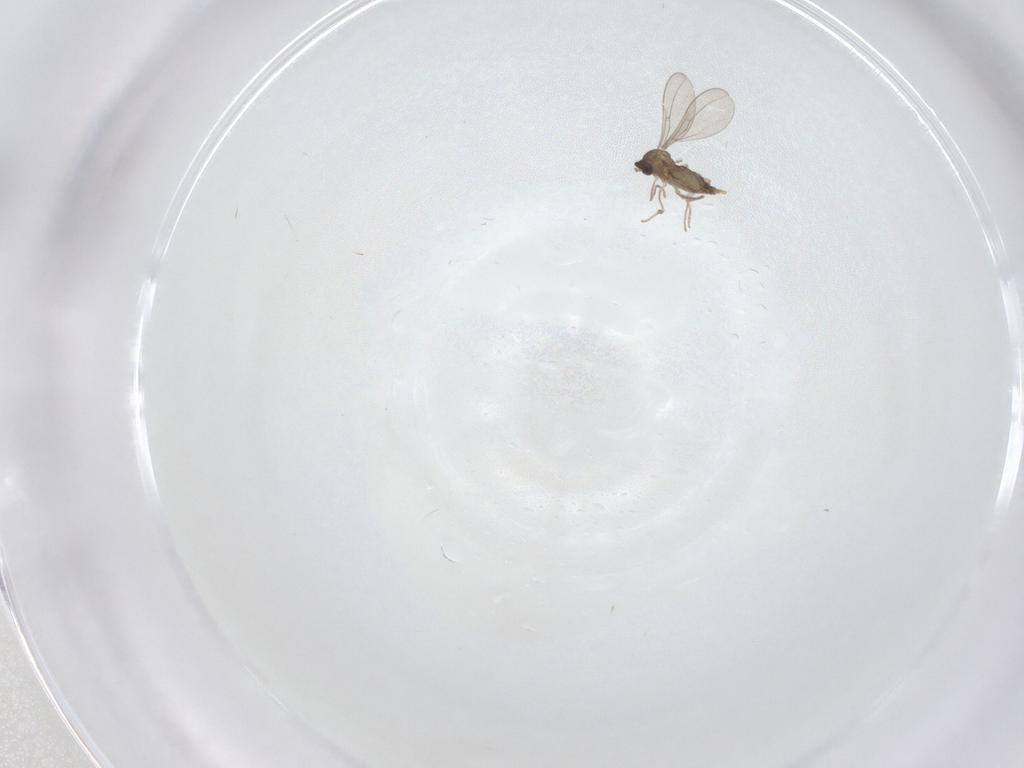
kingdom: Animalia
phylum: Arthropoda
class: Insecta
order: Diptera
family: Cecidomyiidae
